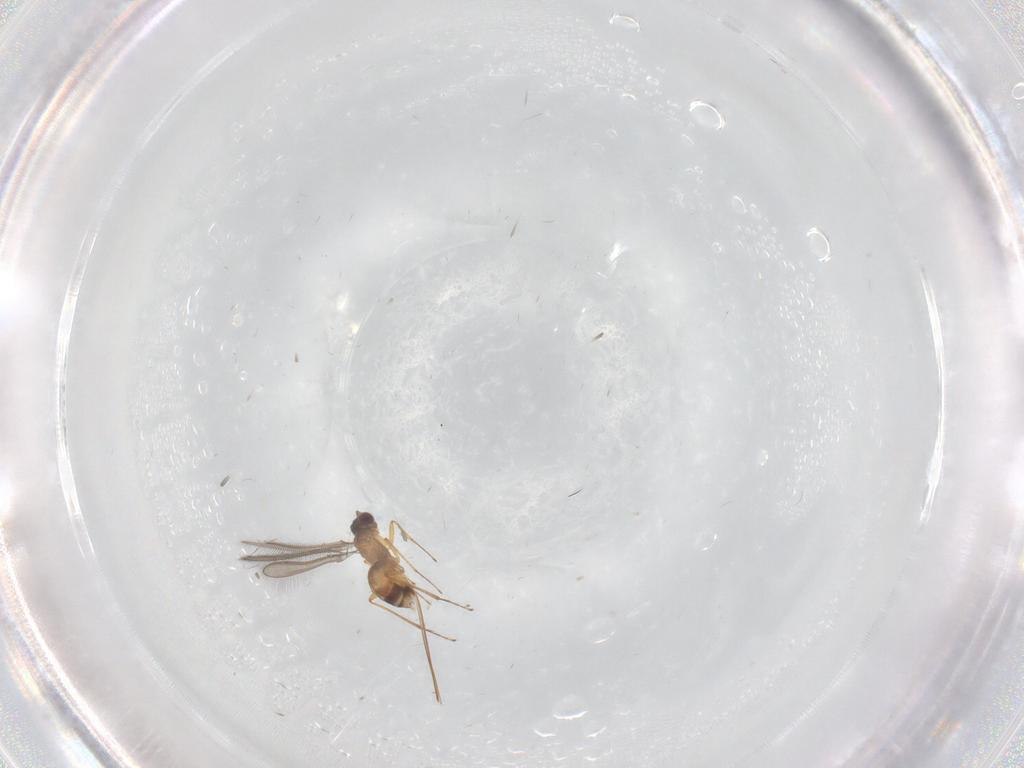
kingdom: Animalia
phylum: Arthropoda
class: Insecta
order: Hymenoptera
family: Mymaridae
